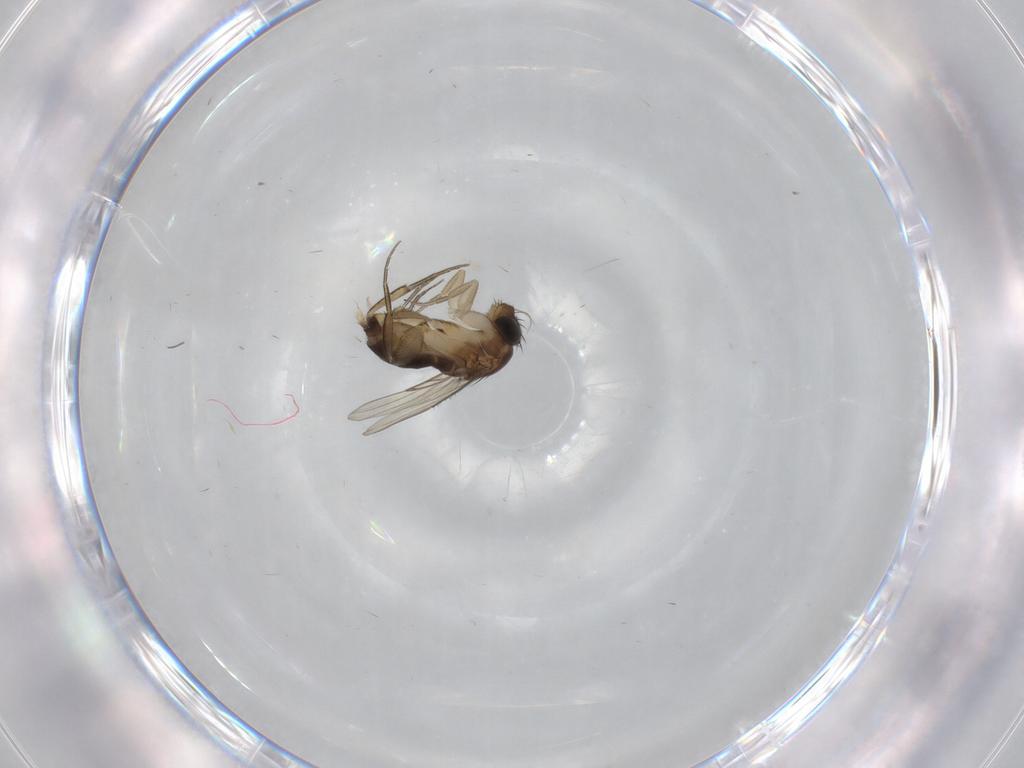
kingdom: Animalia
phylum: Arthropoda
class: Insecta
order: Diptera
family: Phoridae
